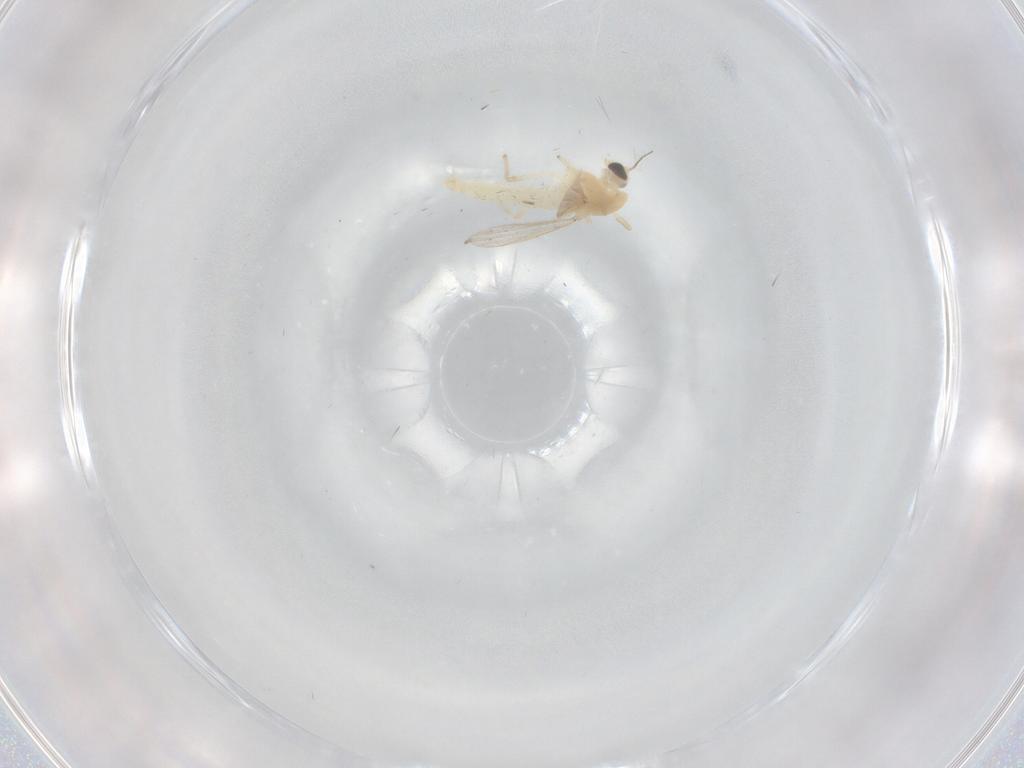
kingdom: Animalia
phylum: Arthropoda
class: Insecta
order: Diptera
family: Chironomidae
